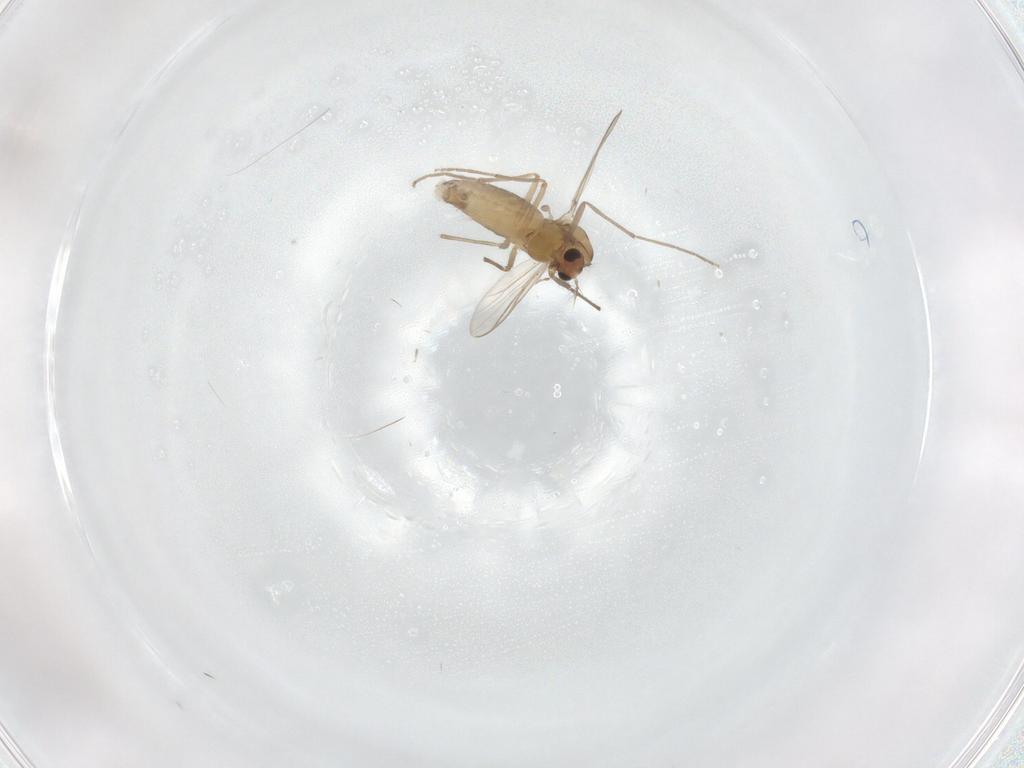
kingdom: Animalia
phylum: Arthropoda
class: Insecta
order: Diptera
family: Chironomidae
